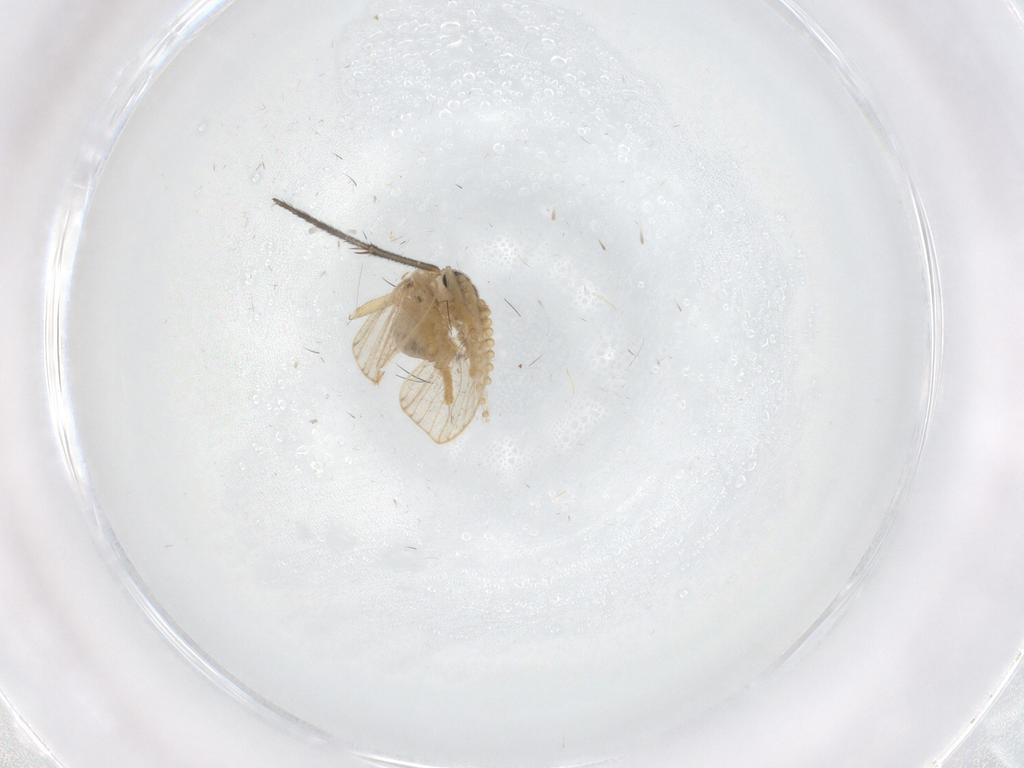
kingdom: Animalia
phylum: Arthropoda
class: Insecta
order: Diptera
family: Psychodidae
